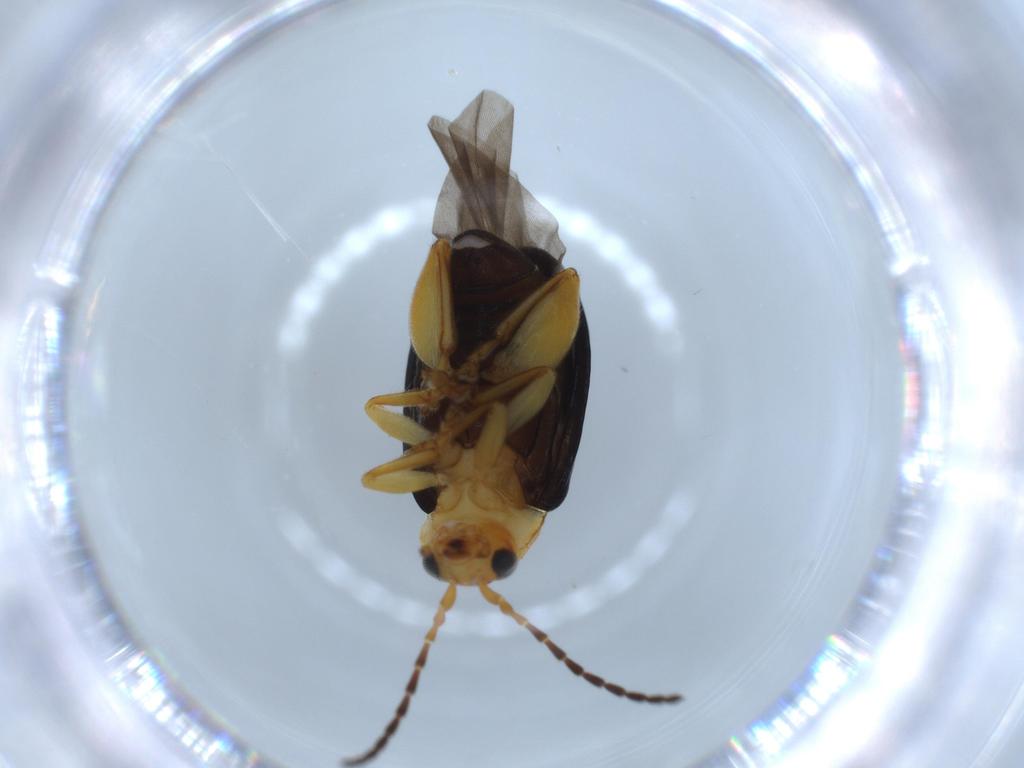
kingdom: Animalia
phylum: Arthropoda
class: Insecta
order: Coleoptera
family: Chrysomelidae
